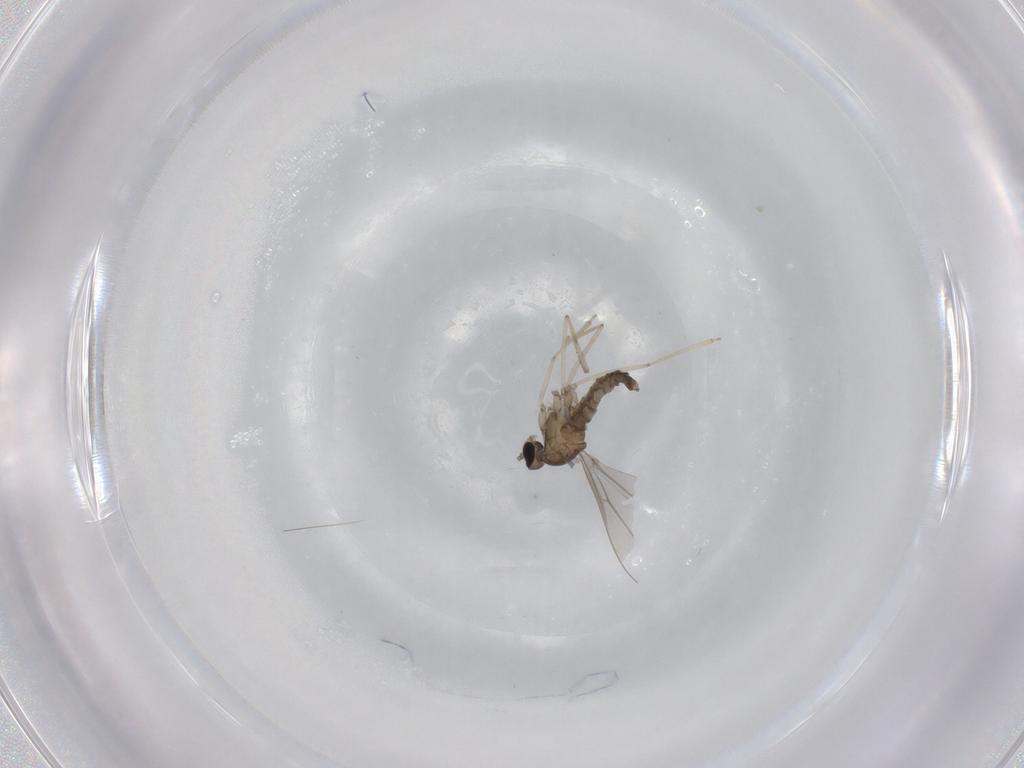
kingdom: Animalia
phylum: Arthropoda
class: Insecta
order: Diptera
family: Cecidomyiidae
